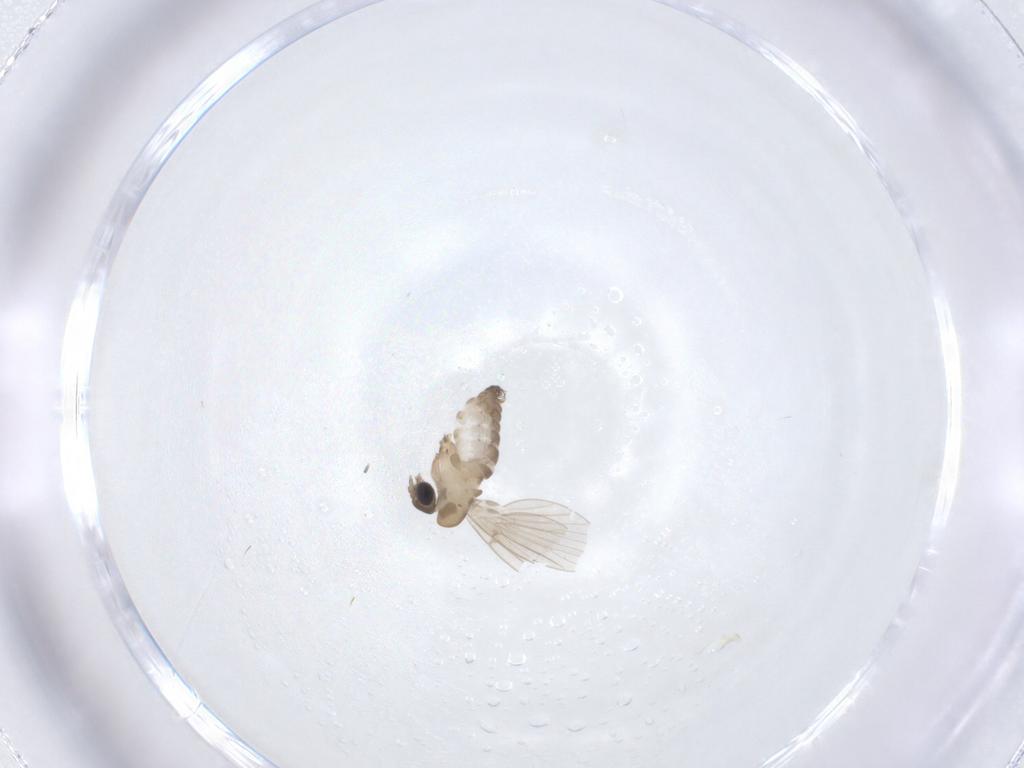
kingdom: Animalia
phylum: Arthropoda
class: Insecta
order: Diptera
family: Psychodidae
